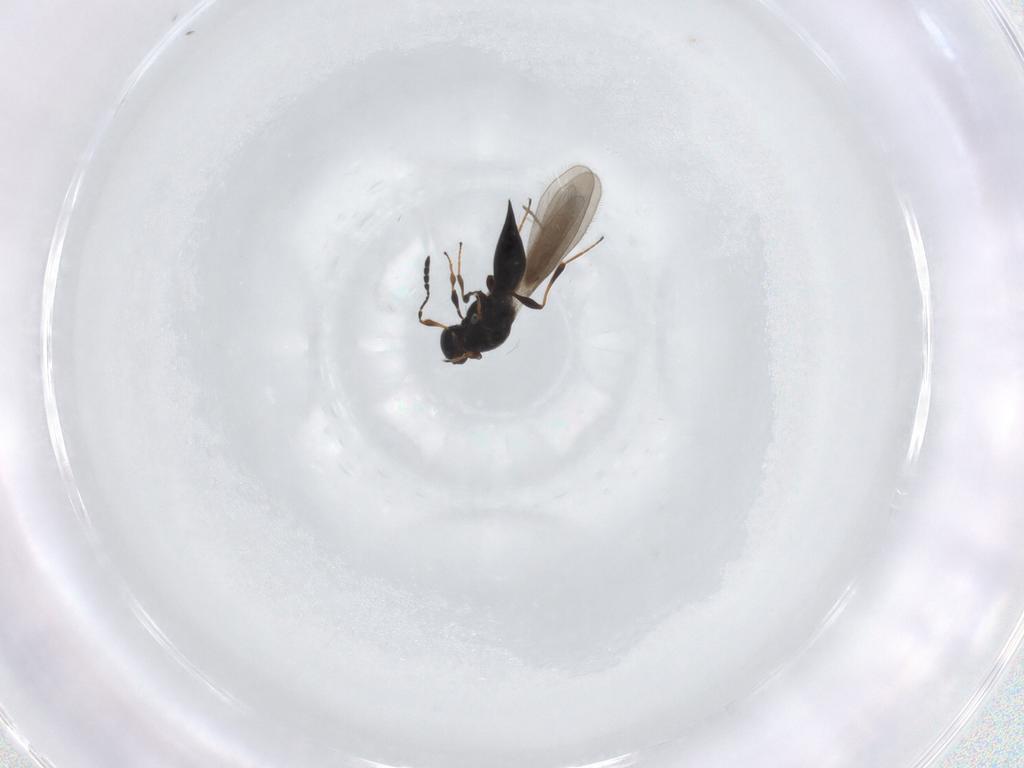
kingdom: Animalia
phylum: Arthropoda
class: Insecta
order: Hymenoptera
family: Platygastridae
